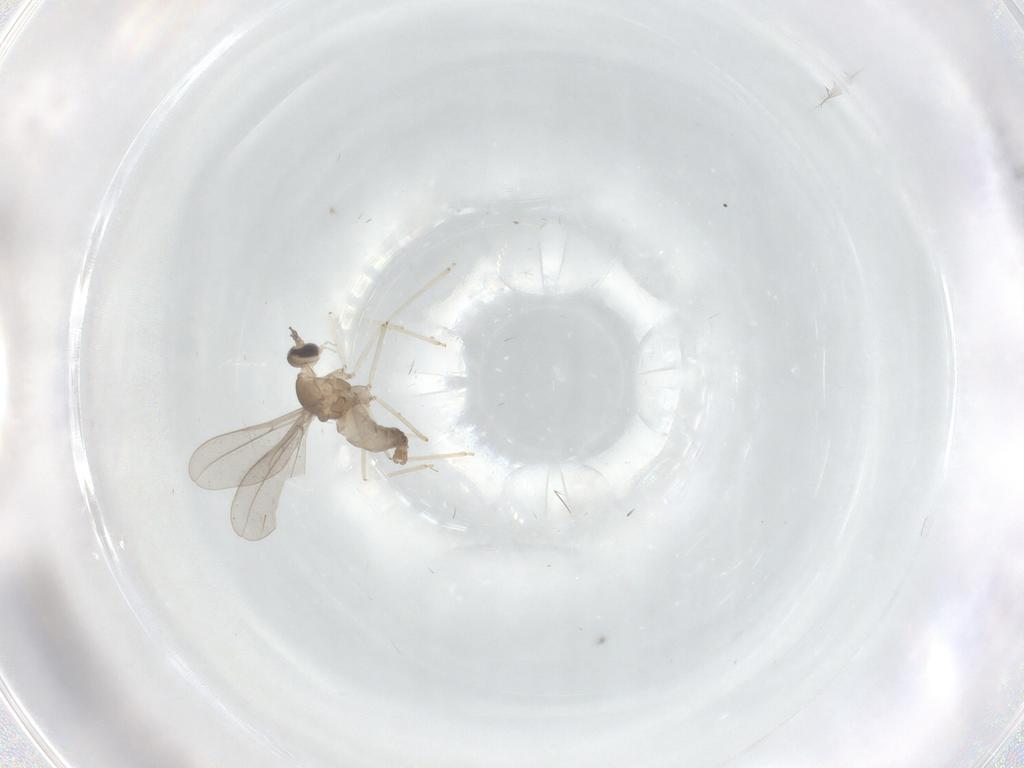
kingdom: Animalia
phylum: Arthropoda
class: Insecta
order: Diptera
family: Cecidomyiidae
